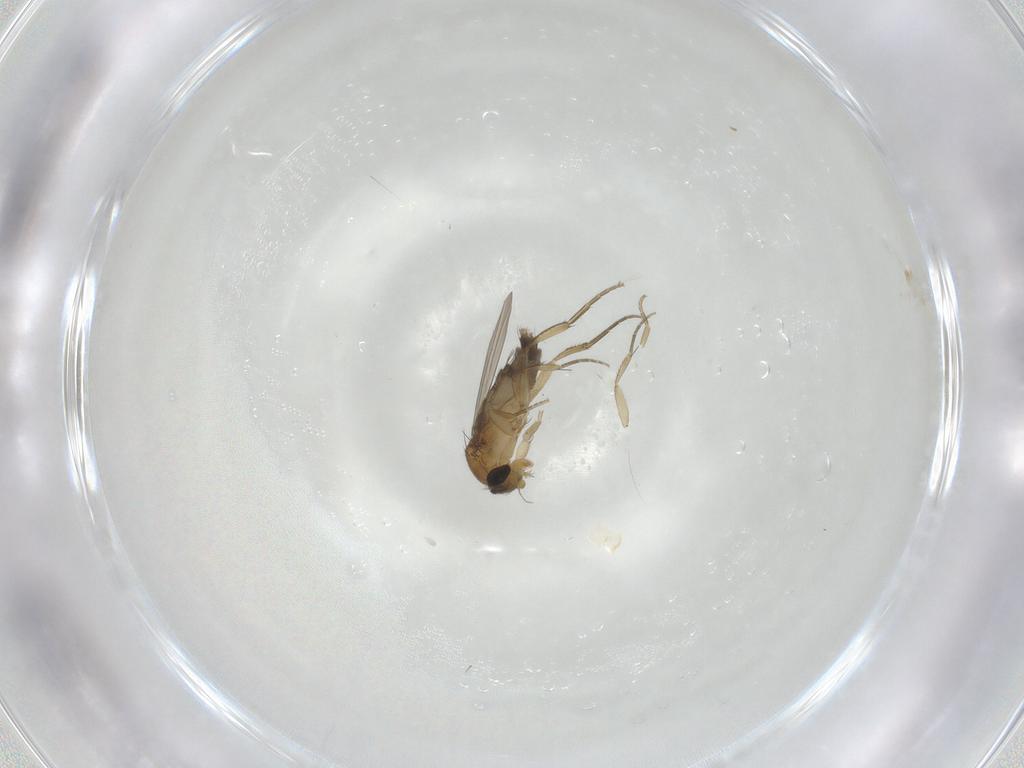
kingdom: Animalia
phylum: Arthropoda
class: Insecta
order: Diptera
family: Phoridae
